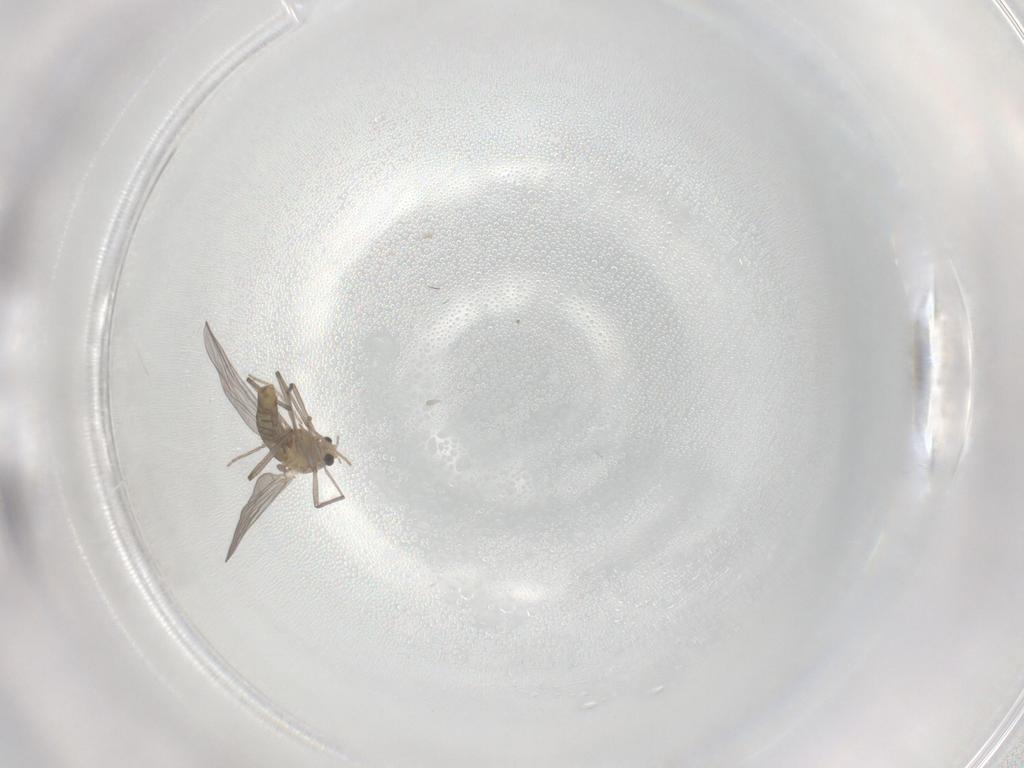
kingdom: Animalia
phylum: Arthropoda
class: Insecta
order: Diptera
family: Chironomidae
